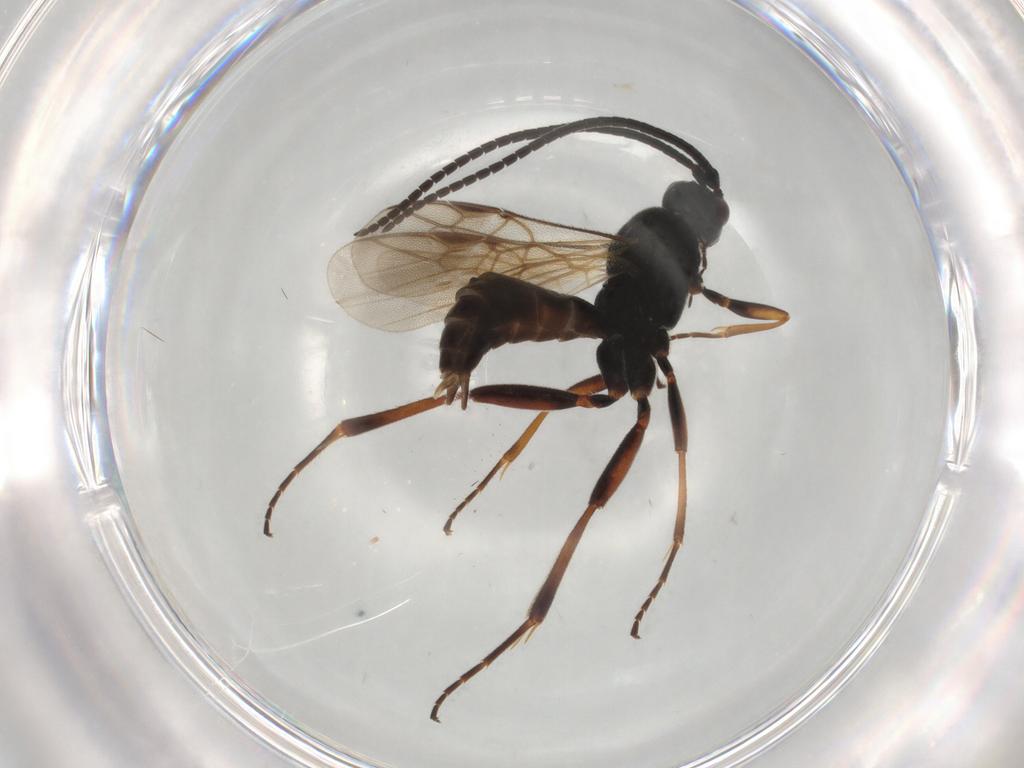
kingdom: Animalia
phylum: Arthropoda
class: Insecta
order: Hymenoptera
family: Braconidae
